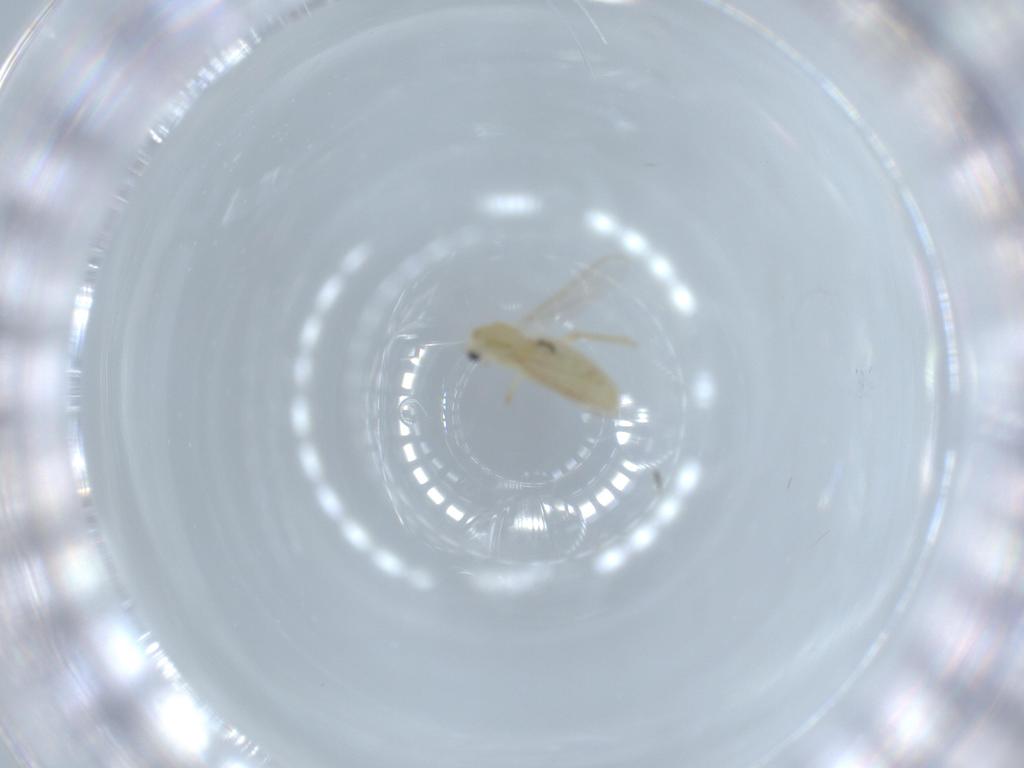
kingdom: Animalia
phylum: Arthropoda
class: Insecta
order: Diptera
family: Chironomidae
